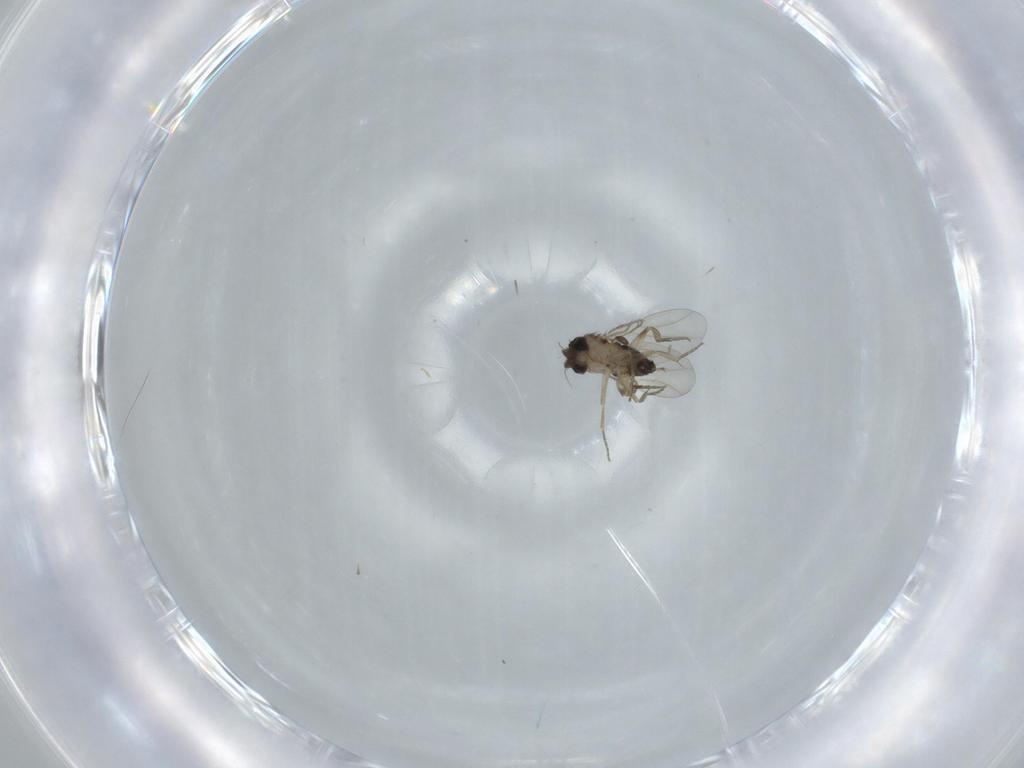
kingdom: Animalia
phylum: Arthropoda
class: Insecta
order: Diptera
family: Phoridae
